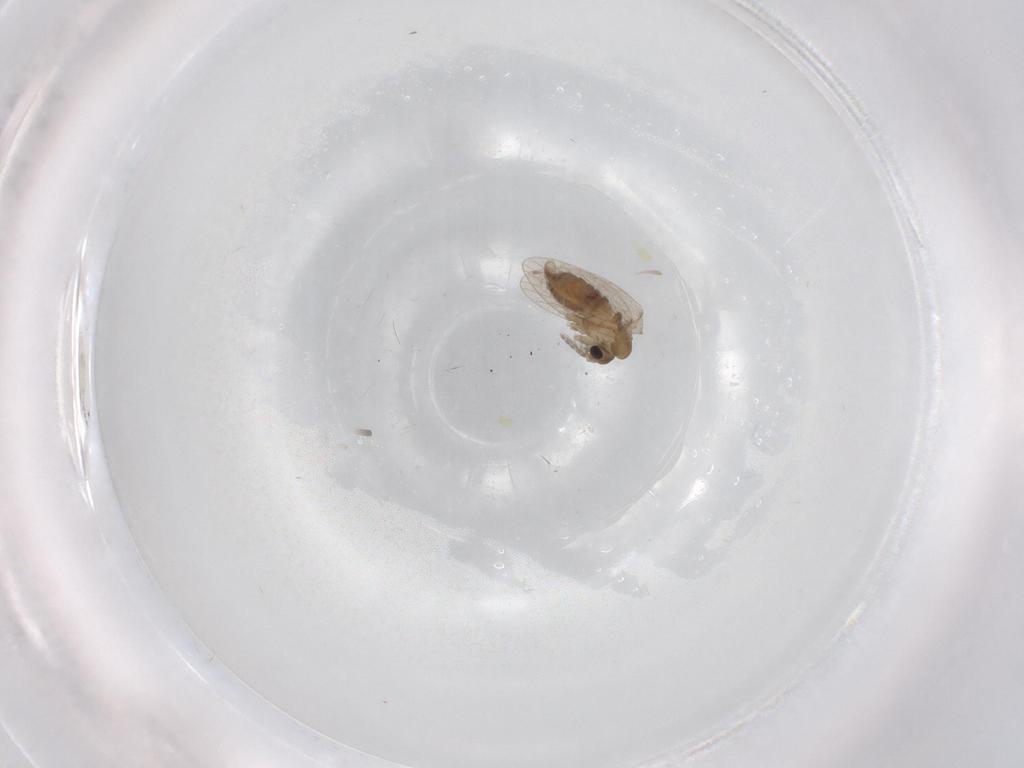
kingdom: Animalia
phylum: Arthropoda
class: Insecta
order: Diptera
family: Psychodidae
